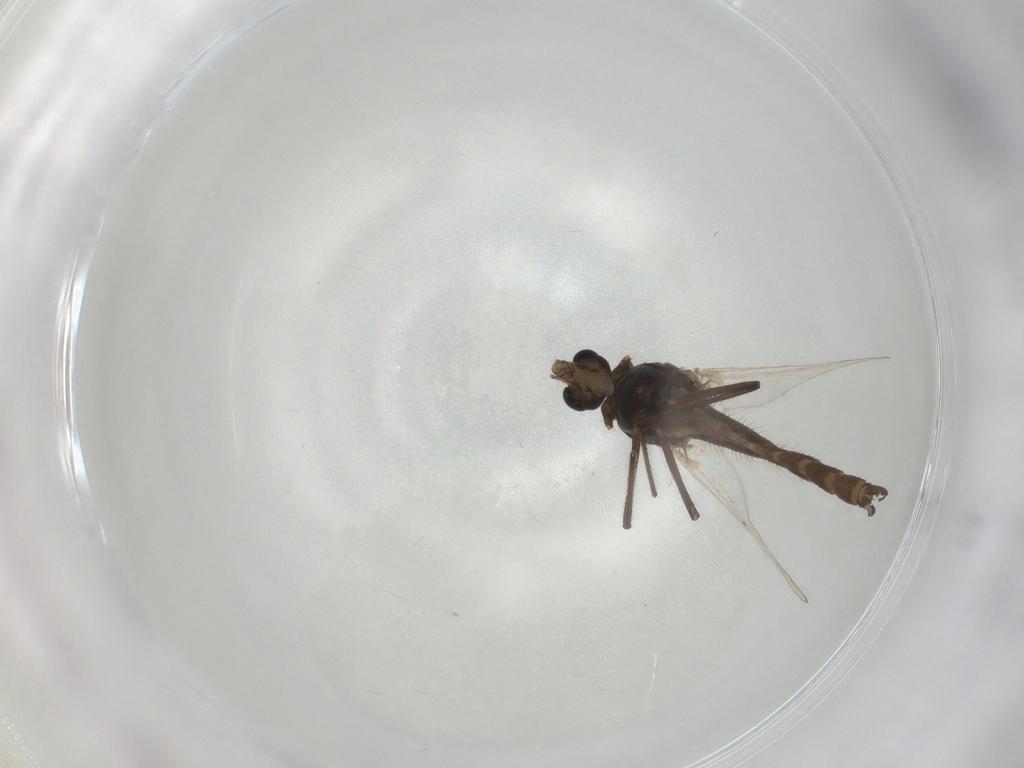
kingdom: Animalia
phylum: Arthropoda
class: Insecta
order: Diptera
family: Sphaeroceridae
